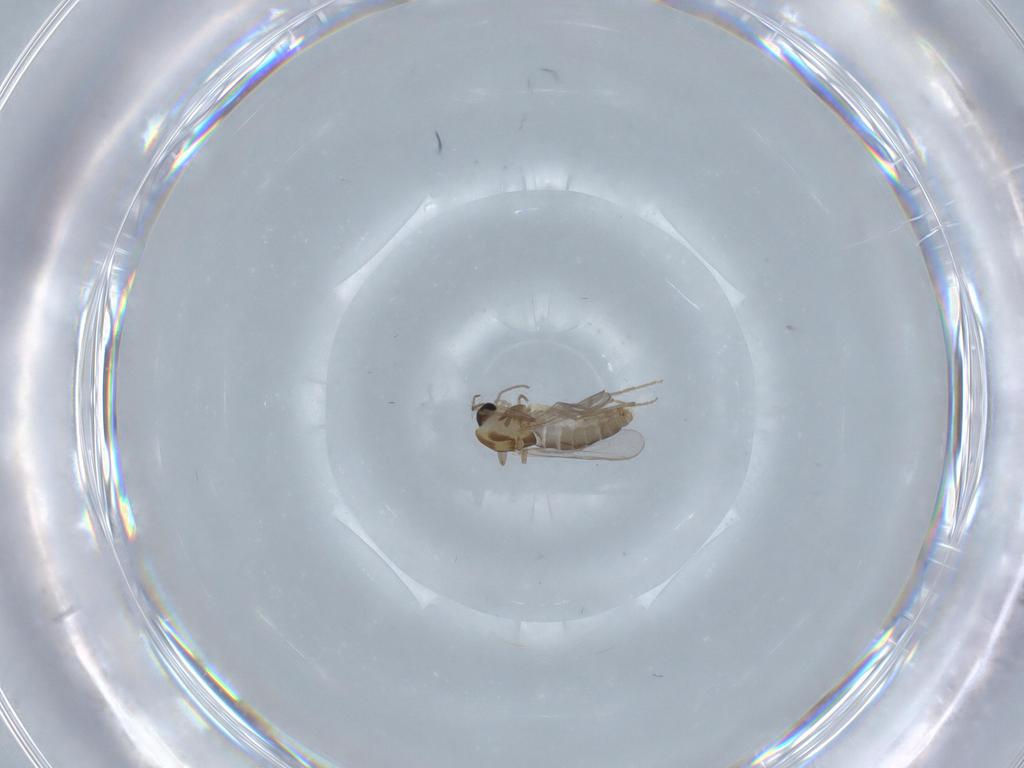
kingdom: Animalia
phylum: Arthropoda
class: Insecta
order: Diptera
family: Chironomidae
